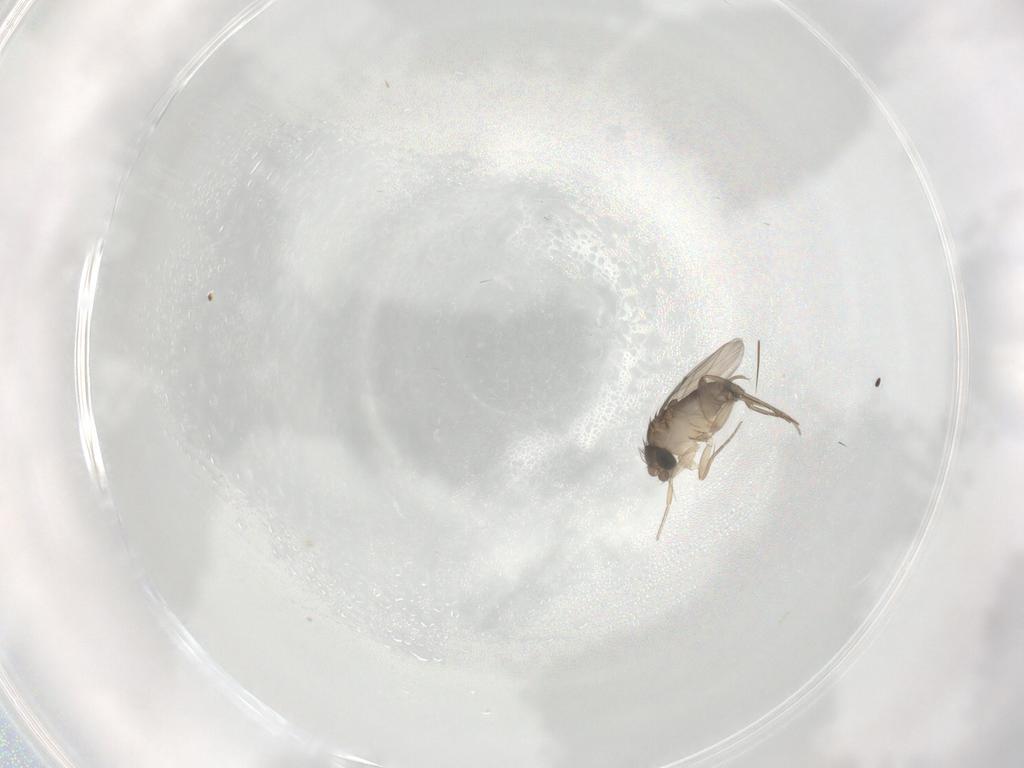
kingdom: Animalia
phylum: Arthropoda
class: Insecta
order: Diptera
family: Phoridae
